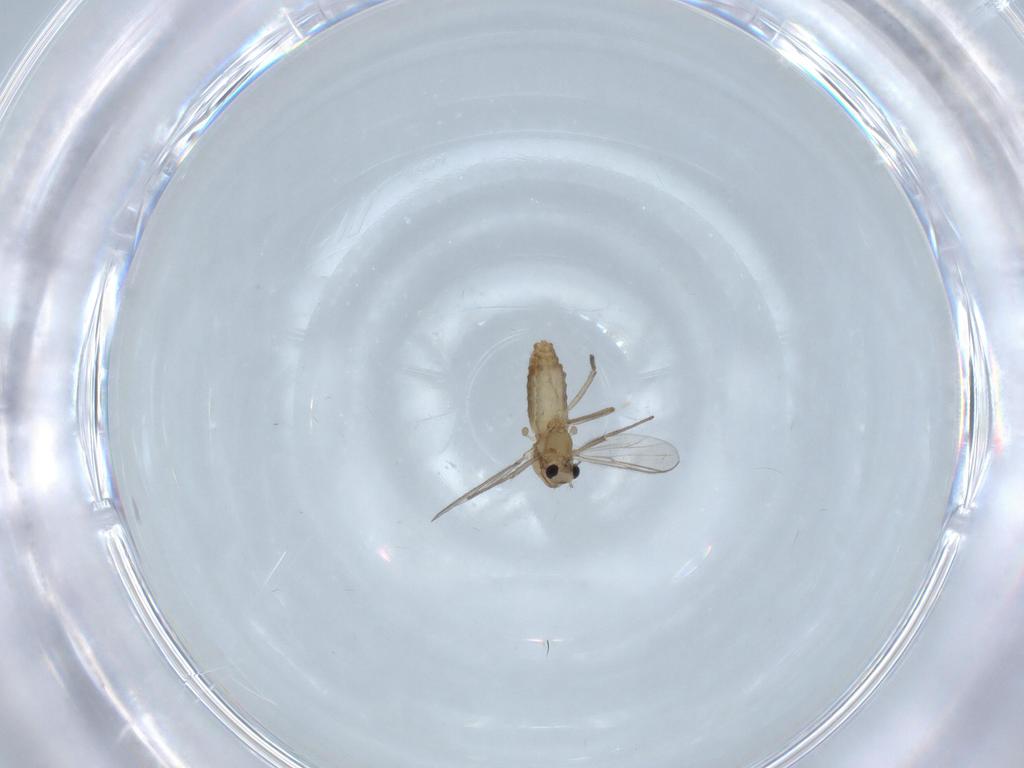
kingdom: Animalia
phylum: Arthropoda
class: Insecta
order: Diptera
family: Chironomidae
